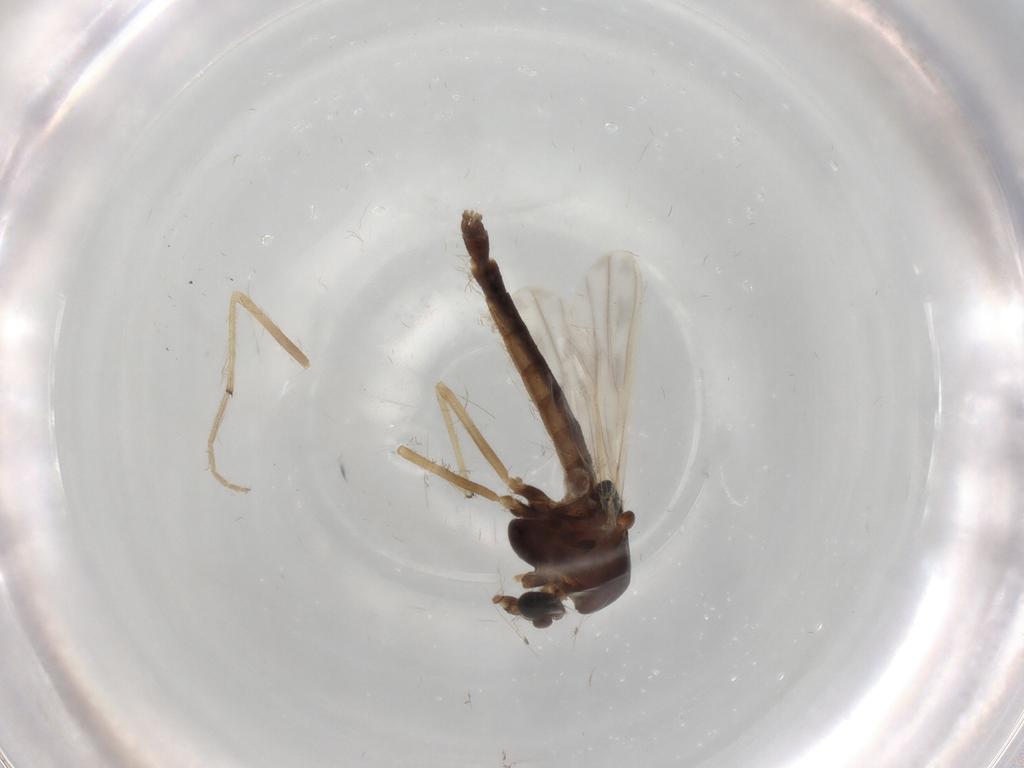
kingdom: Animalia
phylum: Arthropoda
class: Insecta
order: Diptera
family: Chironomidae
